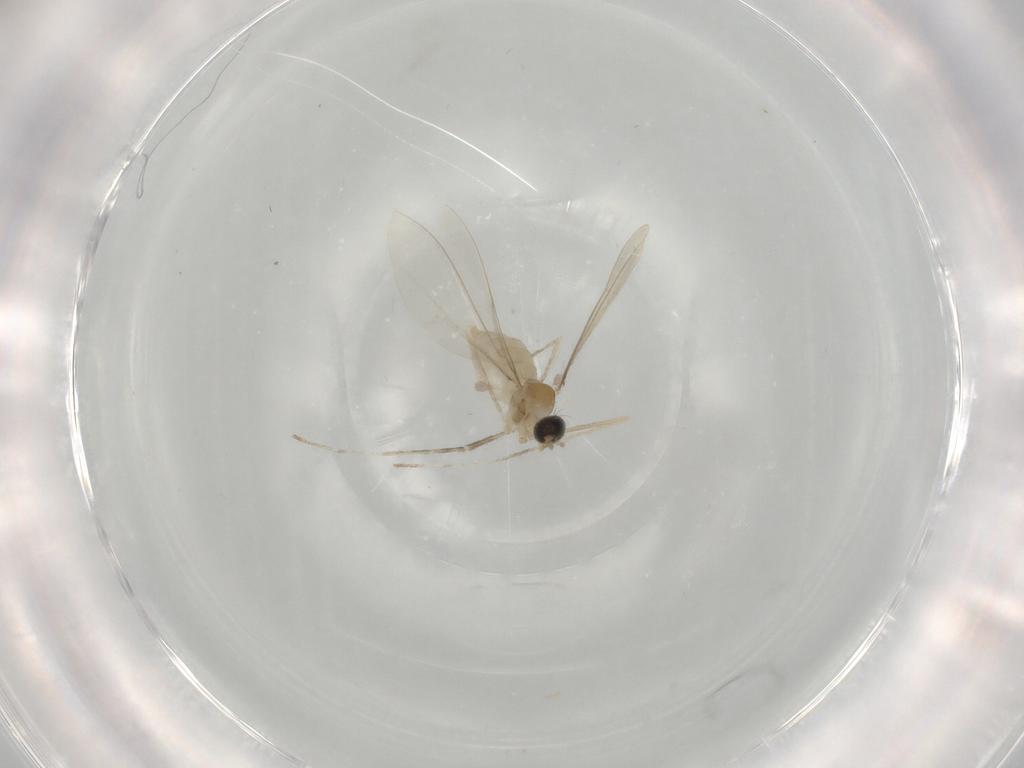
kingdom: Animalia
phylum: Arthropoda
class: Insecta
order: Diptera
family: Cecidomyiidae
